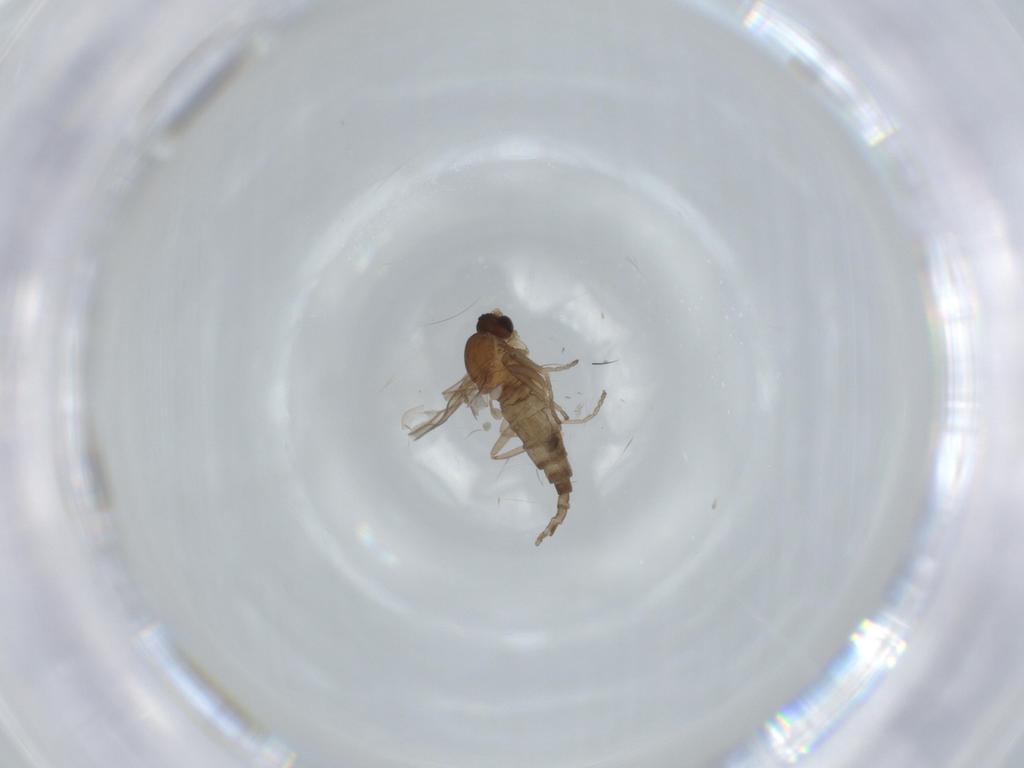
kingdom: Animalia
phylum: Arthropoda
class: Insecta
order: Diptera
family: Cecidomyiidae
